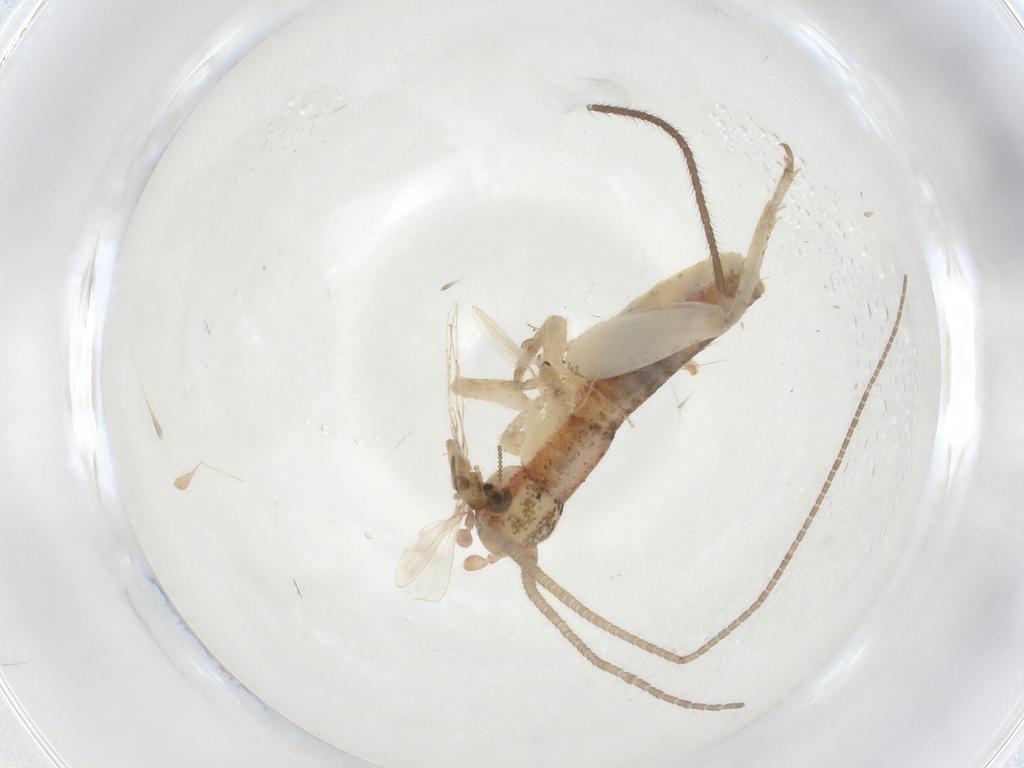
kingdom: Animalia
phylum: Arthropoda
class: Insecta
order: Diptera
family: Cecidomyiidae
